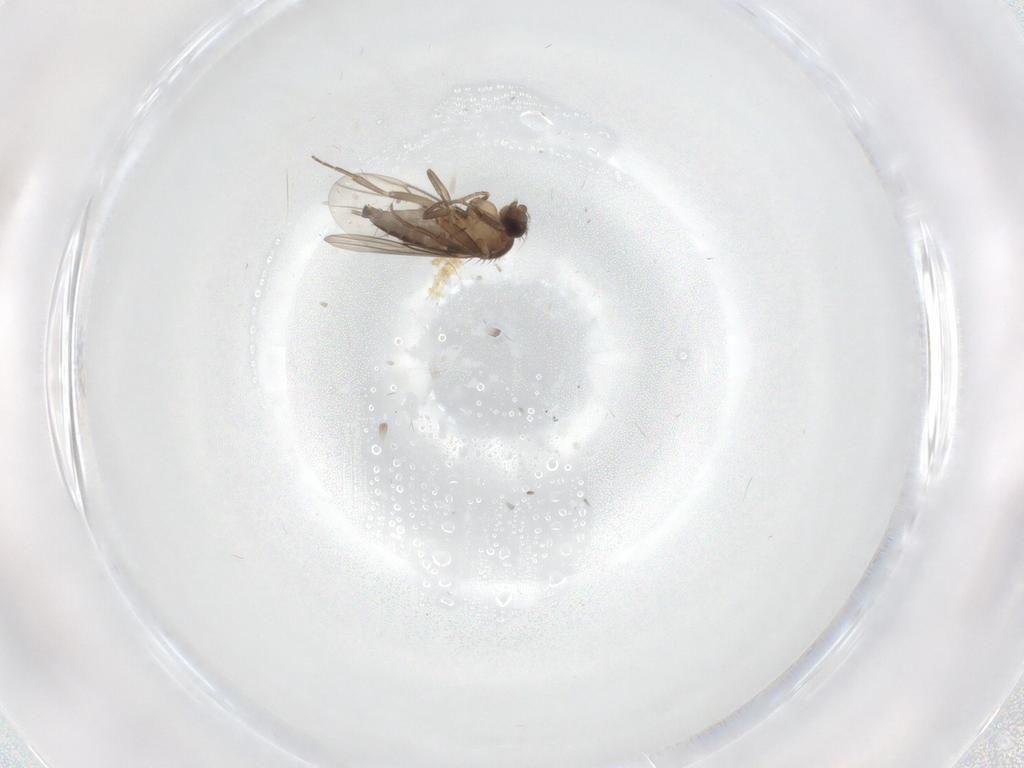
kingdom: Animalia
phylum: Arthropoda
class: Insecta
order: Diptera
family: Phoridae
